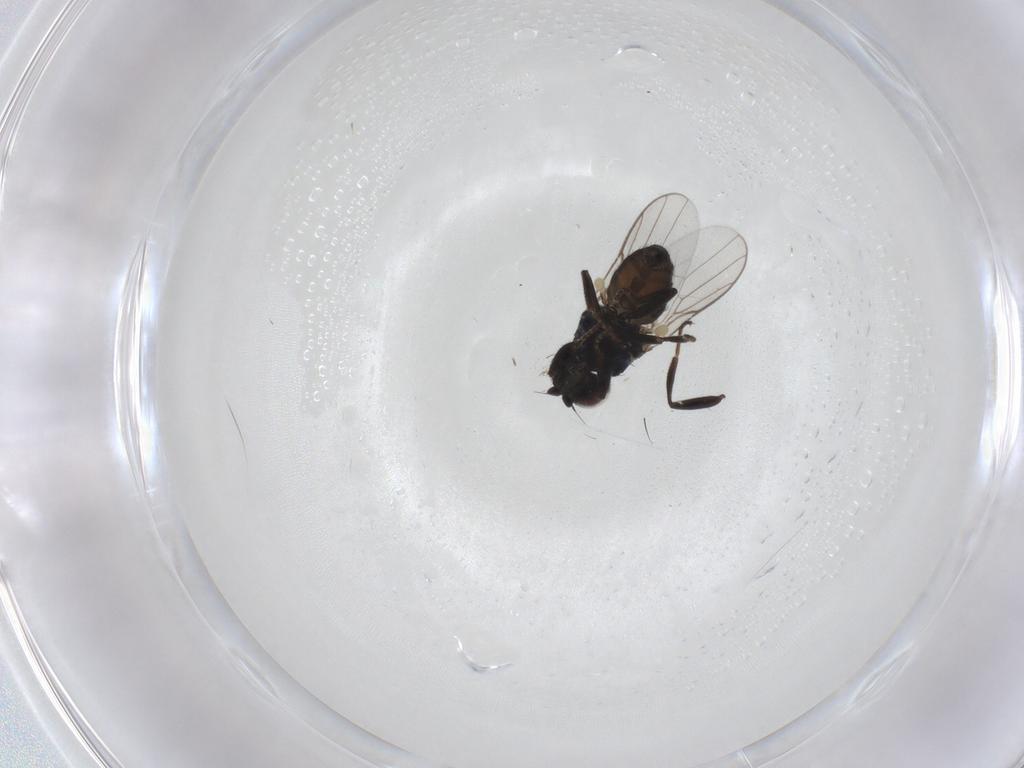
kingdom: Animalia
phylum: Arthropoda
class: Insecta
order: Diptera
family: Chloropidae
